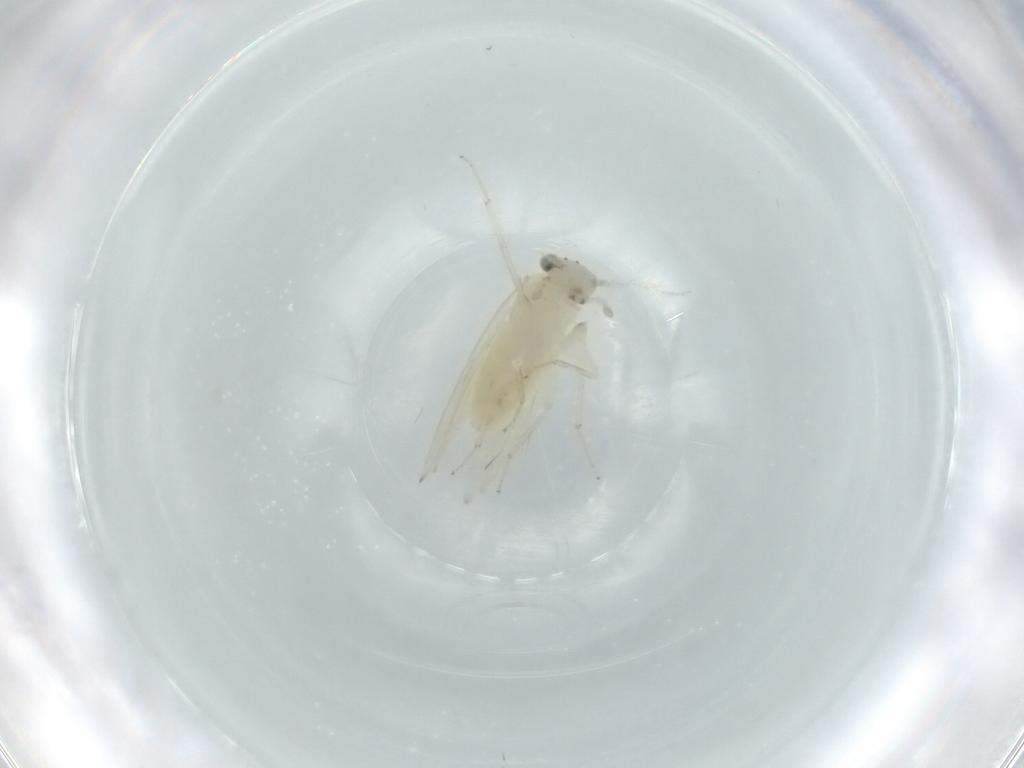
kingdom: Animalia
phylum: Arthropoda
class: Insecta
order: Psocodea
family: Lepidopsocidae
